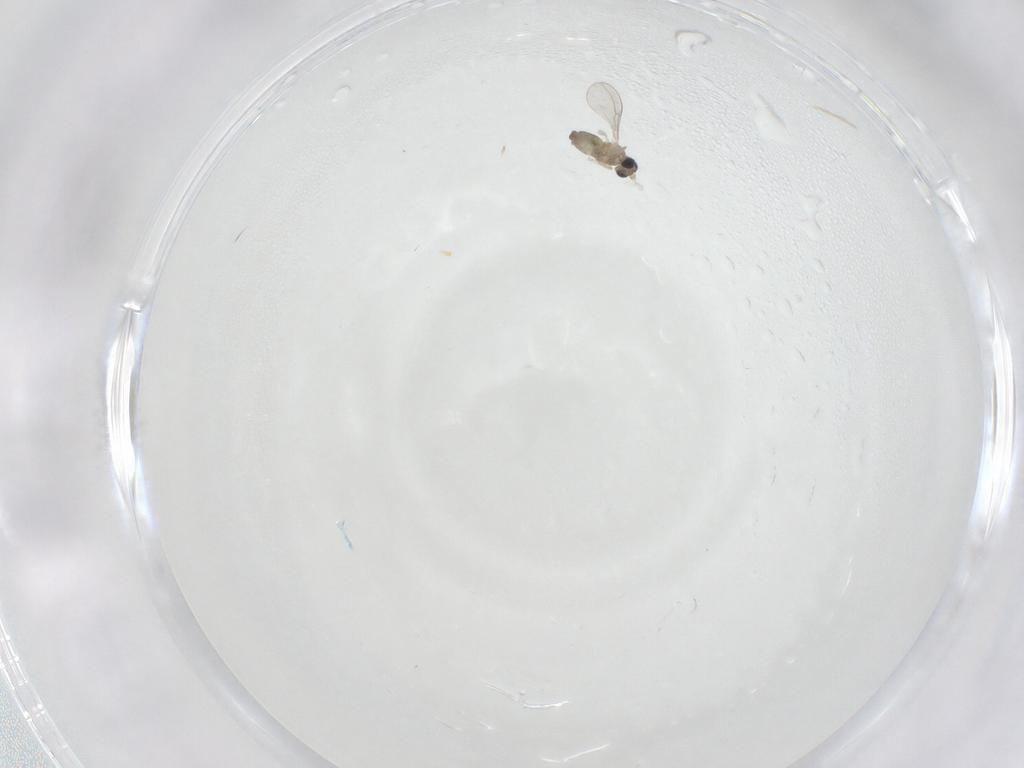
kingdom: Animalia
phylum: Arthropoda
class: Insecta
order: Diptera
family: Cecidomyiidae
